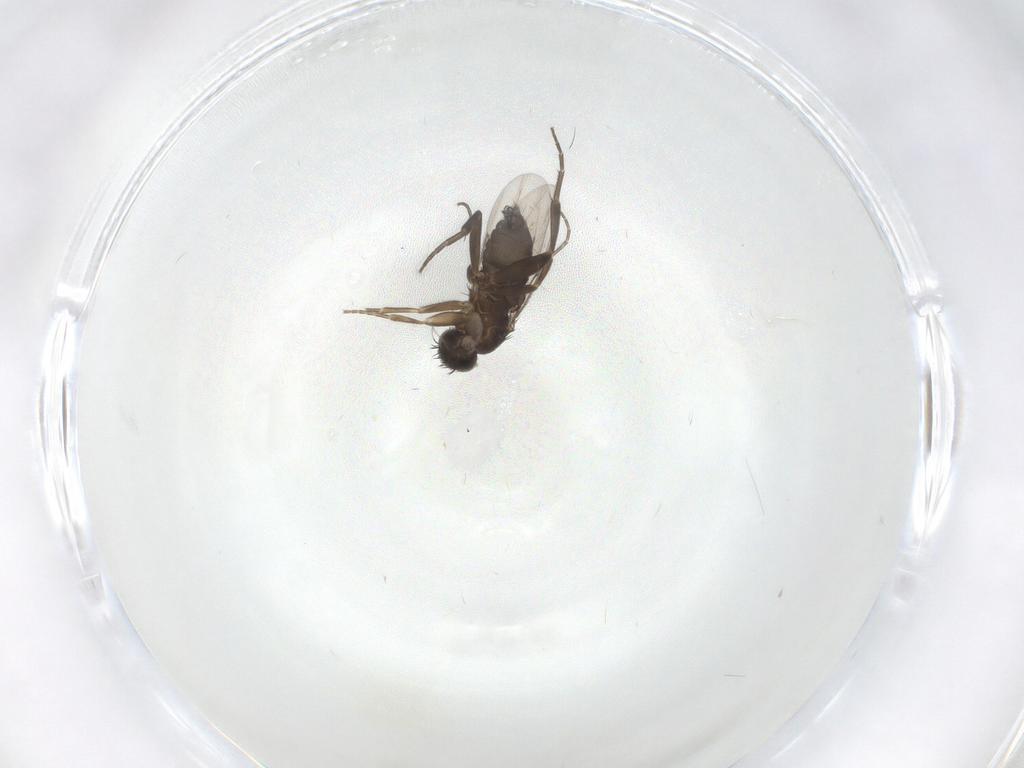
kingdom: Animalia
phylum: Arthropoda
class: Insecta
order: Diptera
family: Phoridae
